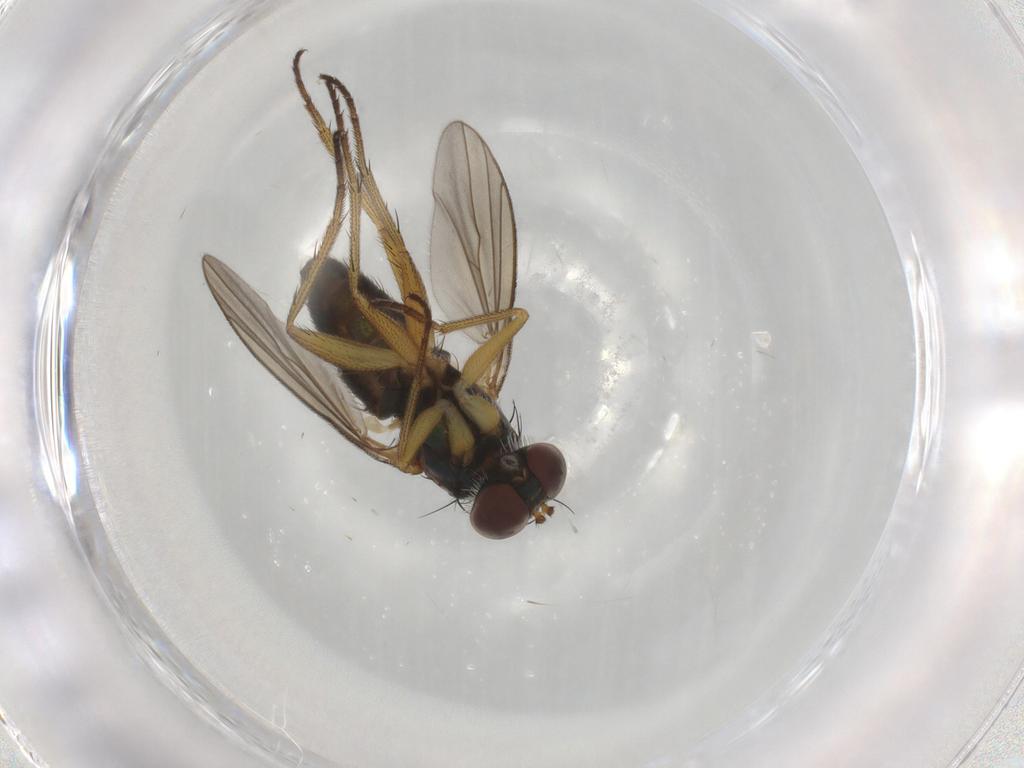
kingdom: Animalia
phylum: Arthropoda
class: Insecta
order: Diptera
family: Dolichopodidae
